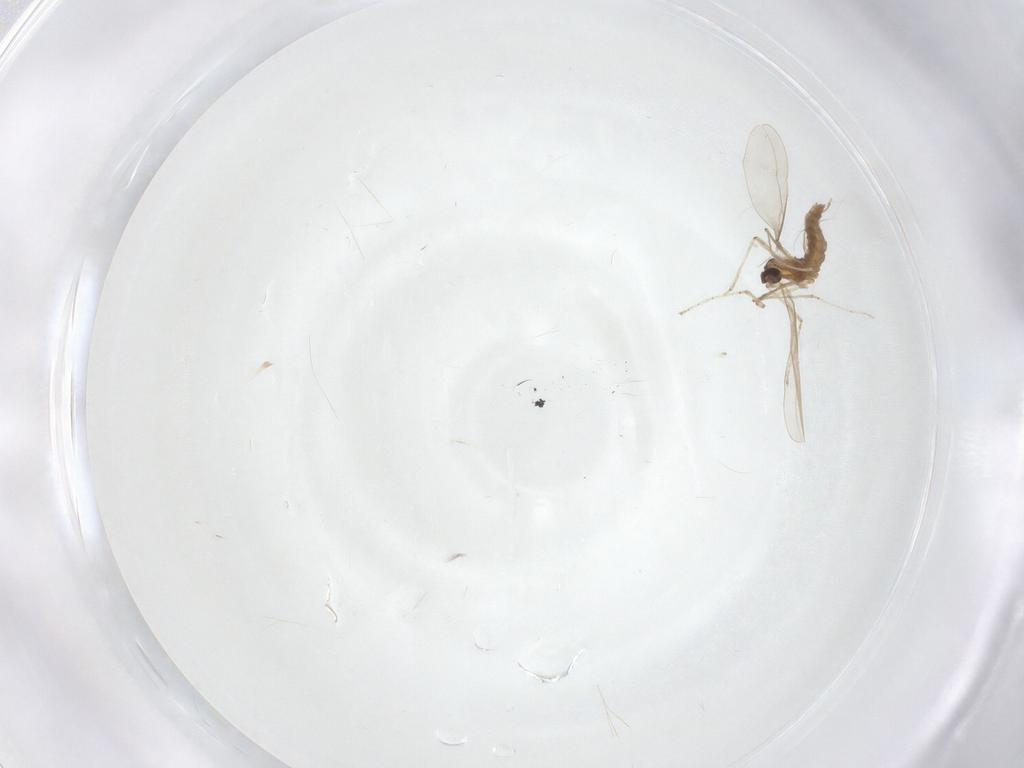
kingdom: Animalia
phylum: Arthropoda
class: Insecta
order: Diptera
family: Cecidomyiidae
